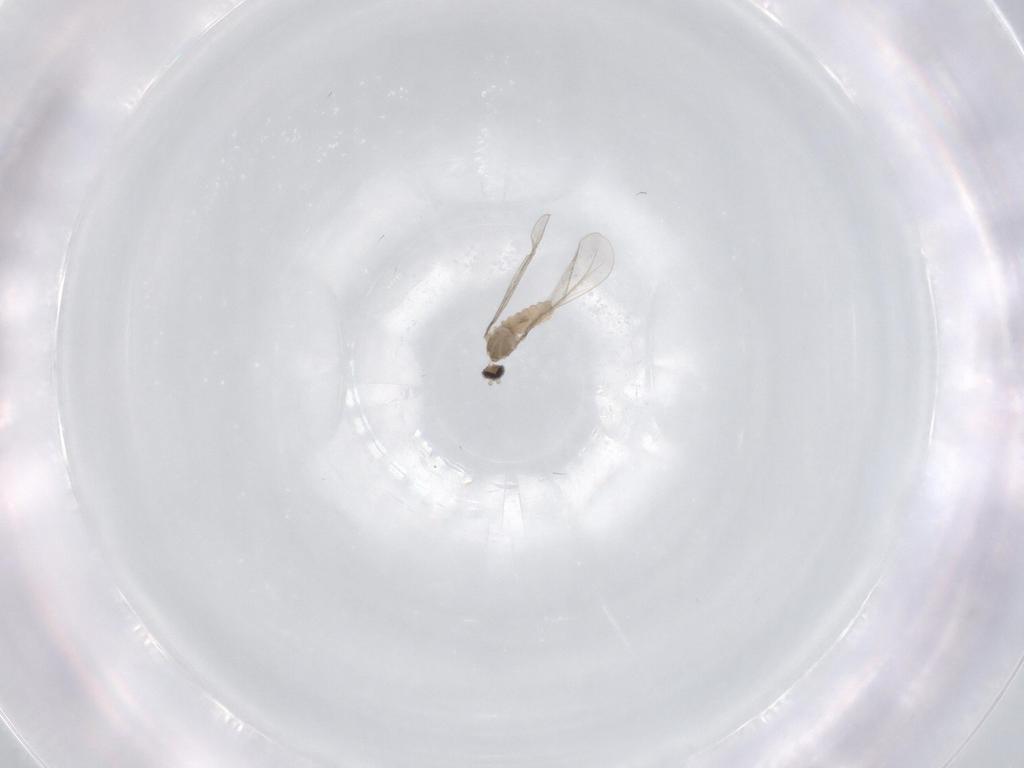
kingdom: Animalia
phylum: Arthropoda
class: Insecta
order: Diptera
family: Cecidomyiidae
